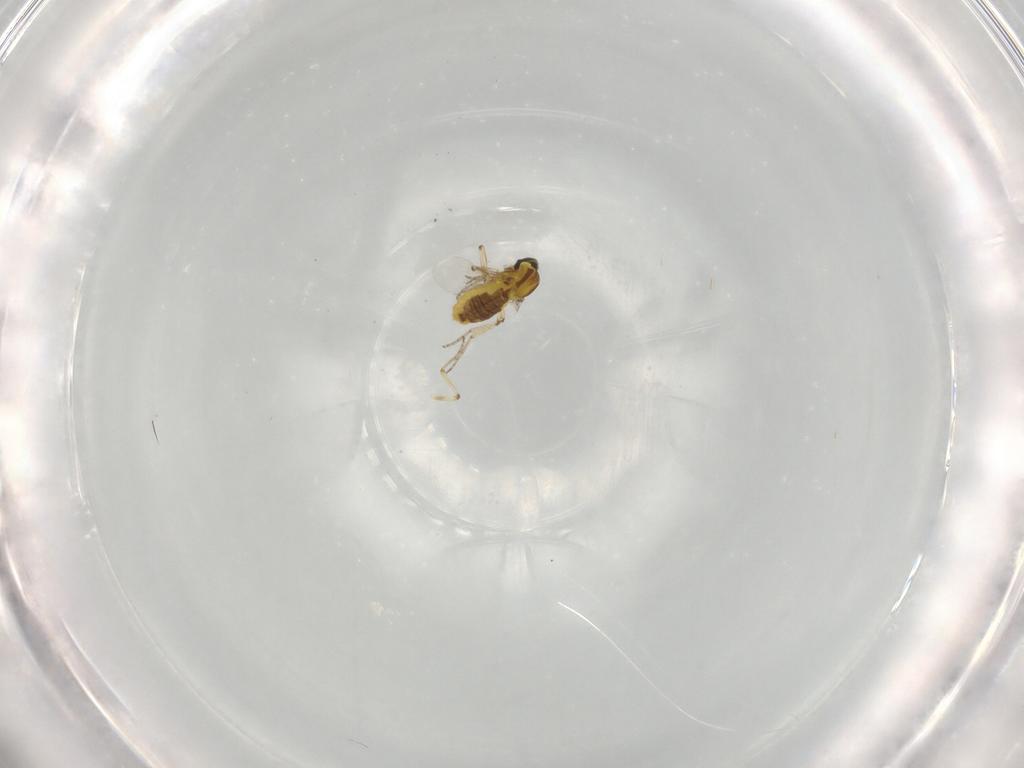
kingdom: Animalia
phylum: Arthropoda
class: Insecta
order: Diptera
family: Ceratopogonidae
